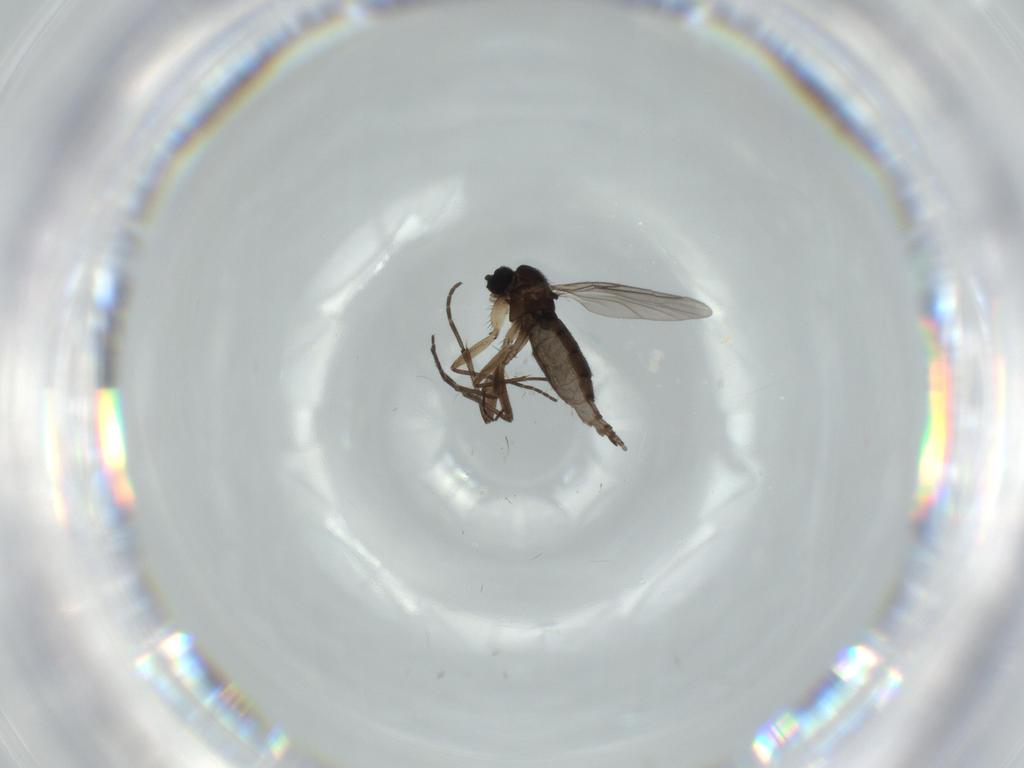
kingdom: Animalia
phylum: Arthropoda
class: Insecta
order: Diptera
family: Sciaridae
